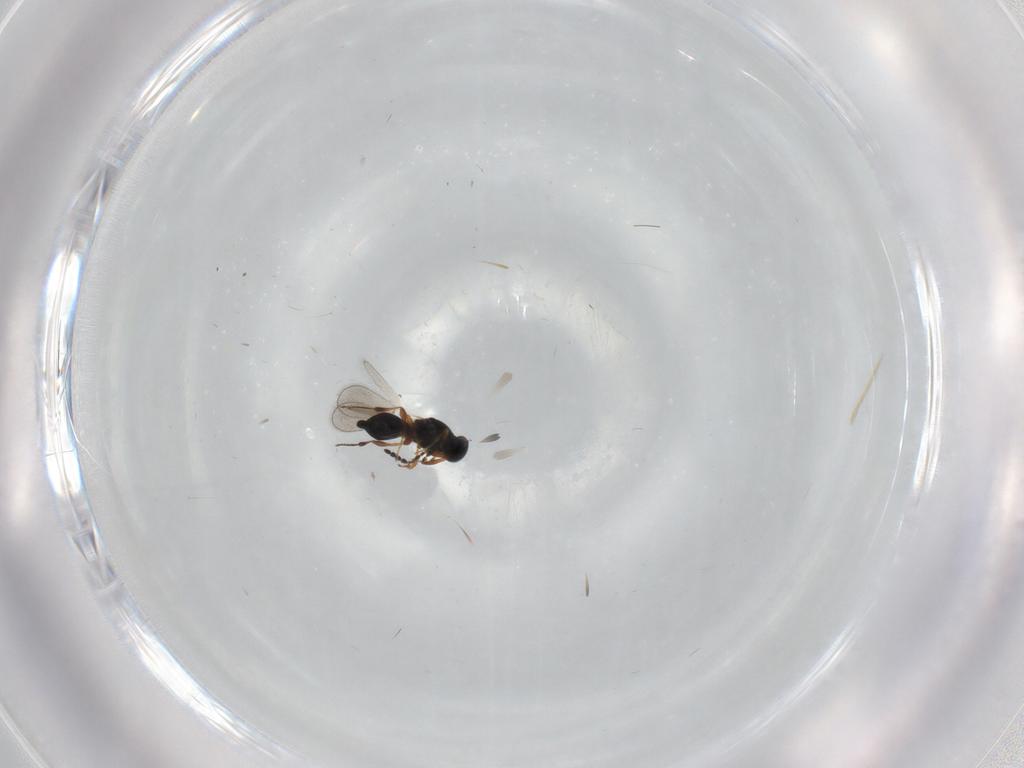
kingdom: Animalia
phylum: Arthropoda
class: Insecta
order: Hymenoptera
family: Platygastridae
